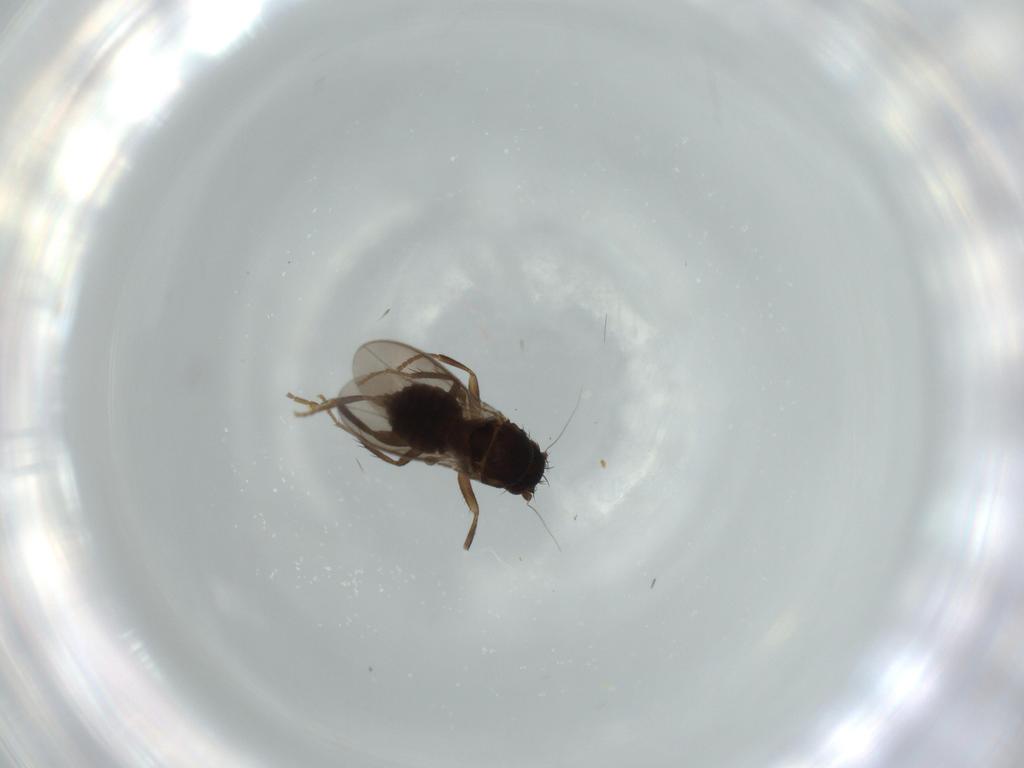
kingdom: Animalia
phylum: Arthropoda
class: Insecta
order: Diptera
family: Sphaeroceridae
